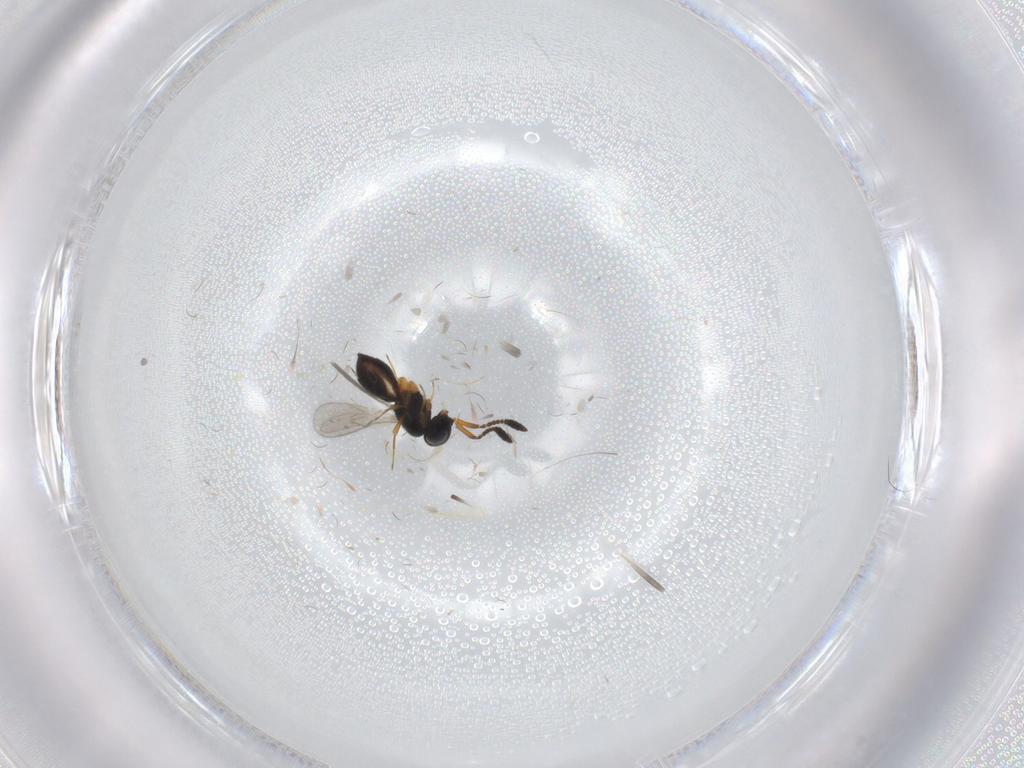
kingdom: Animalia
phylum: Arthropoda
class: Insecta
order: Hymenoptera
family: Scelionidae
